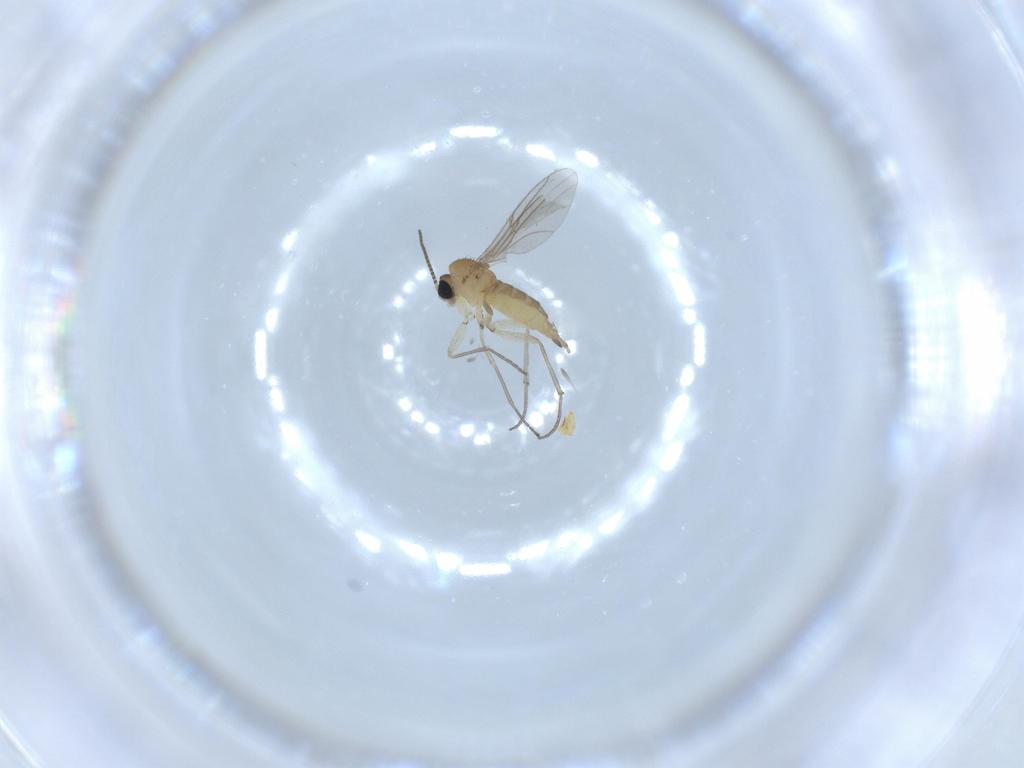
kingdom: Animalia
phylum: Arthropoda
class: Insecta
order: Diptera
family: Sciaridae
